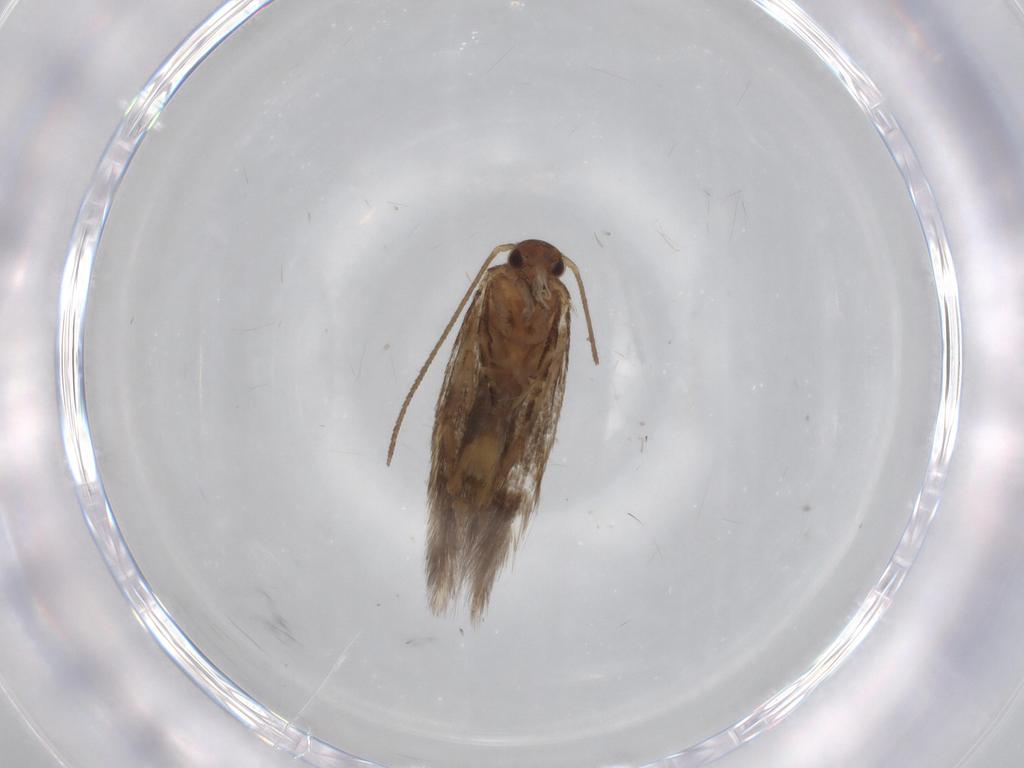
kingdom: Animalia
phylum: Arthropoda
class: Insecta
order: Lepidoptera
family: Elachistidae
